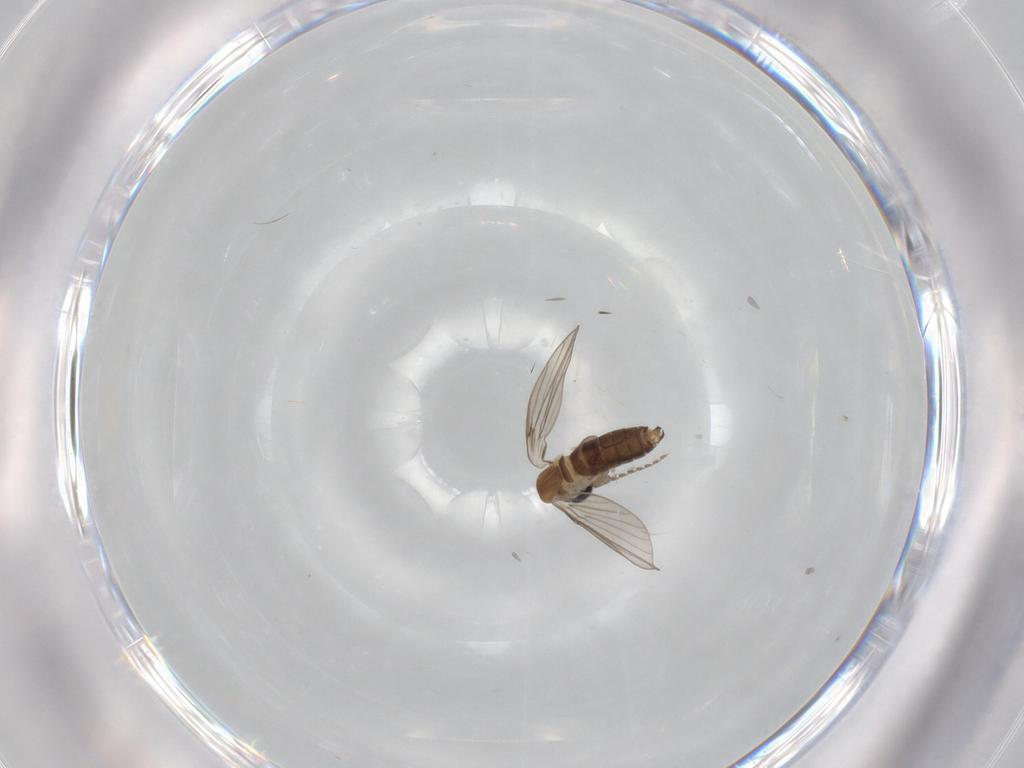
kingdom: Animalia
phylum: Arthropoda
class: Insecta
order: Diptera
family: Psychodidae
